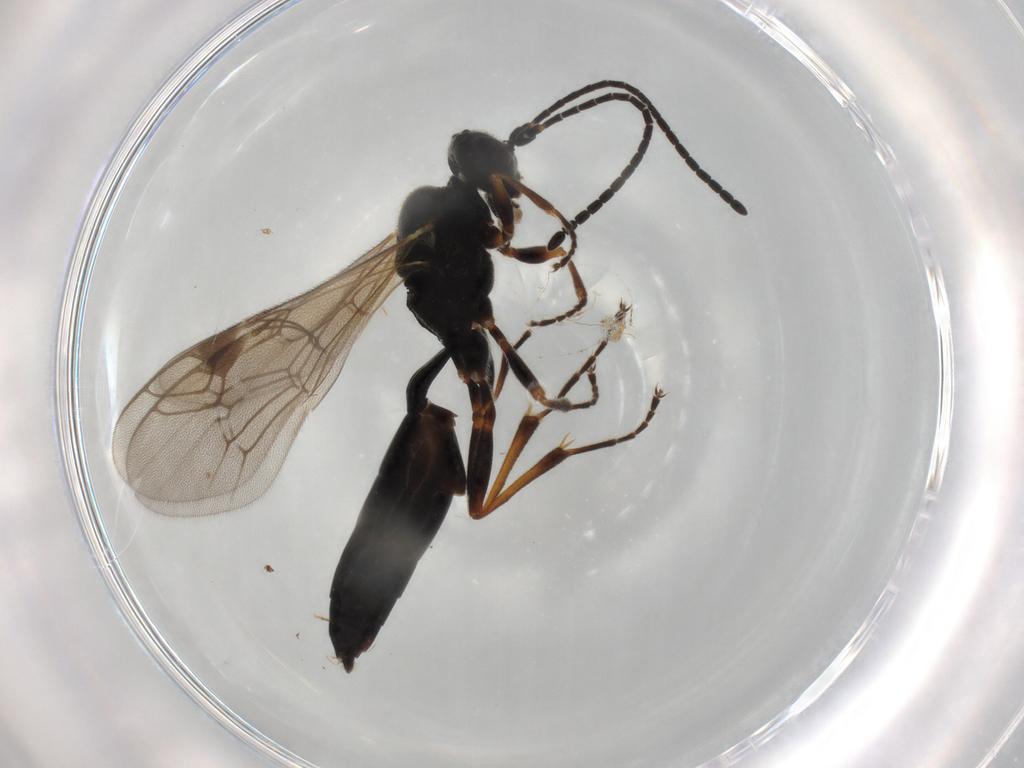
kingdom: Animalia
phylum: Arthropoda
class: Insecta
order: Hymenoptera
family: Ichneumonidae
